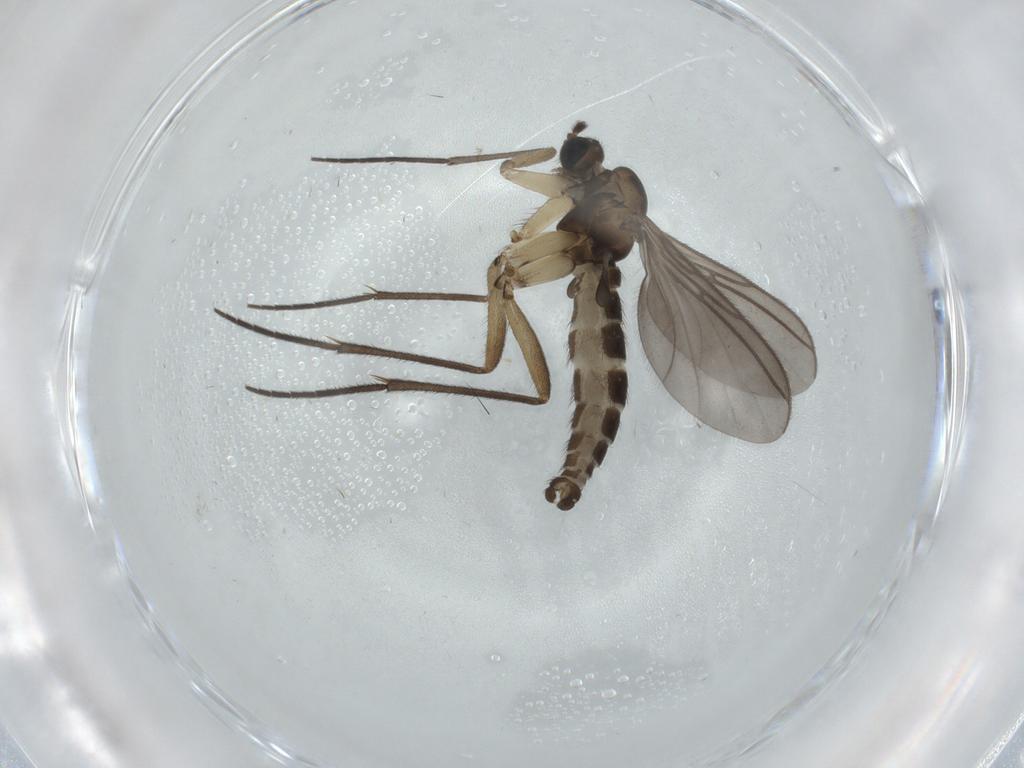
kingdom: Animalia
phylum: Arthropoda
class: Insecta
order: Diptera
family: Sciaridae
